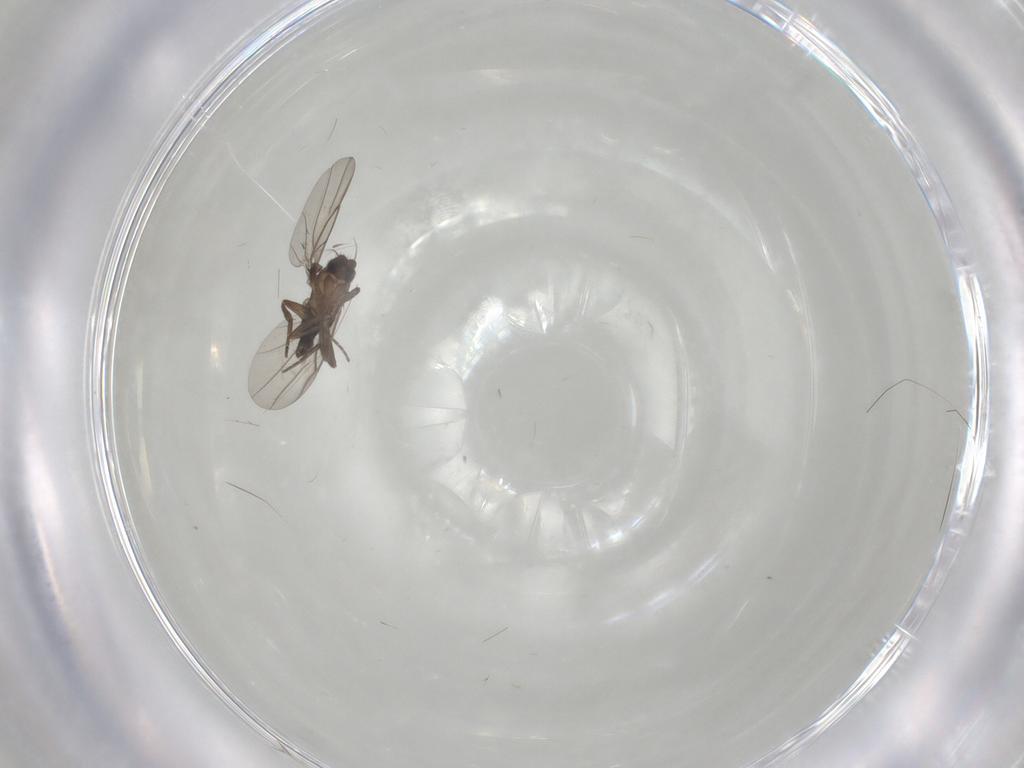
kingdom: Animalia
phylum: Arthropoda
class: Insecta
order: Diptera
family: Phoridae
